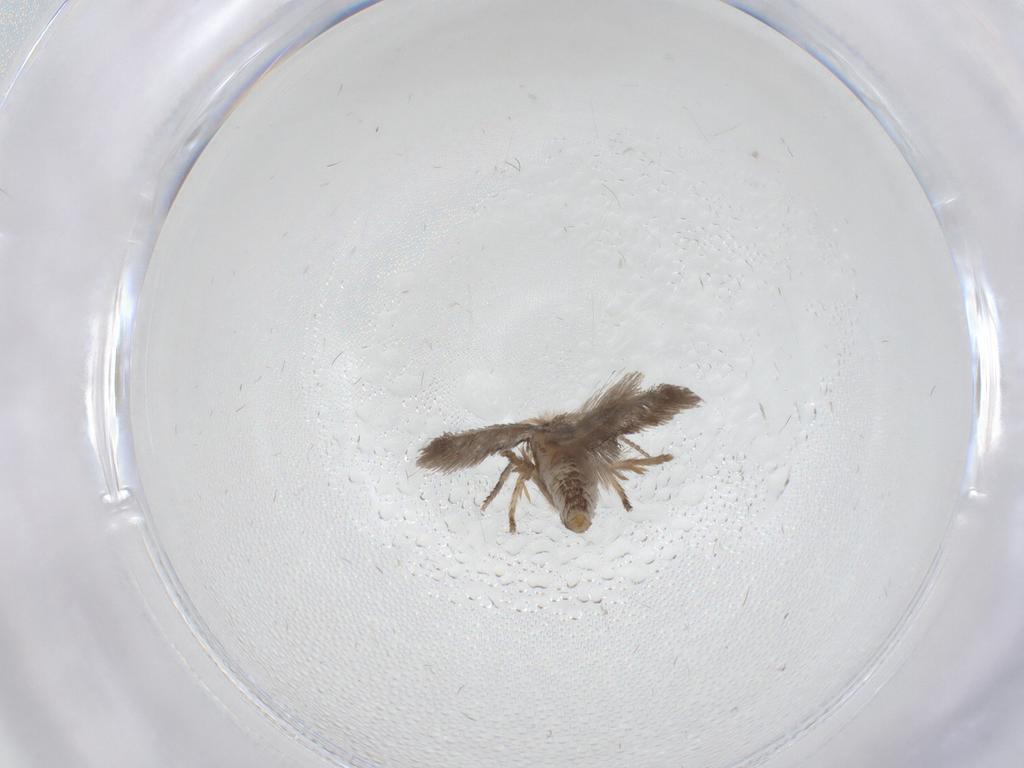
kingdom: Animalia
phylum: Arthropoda
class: Insecta
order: Lepidoptera
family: Nepticulidae
